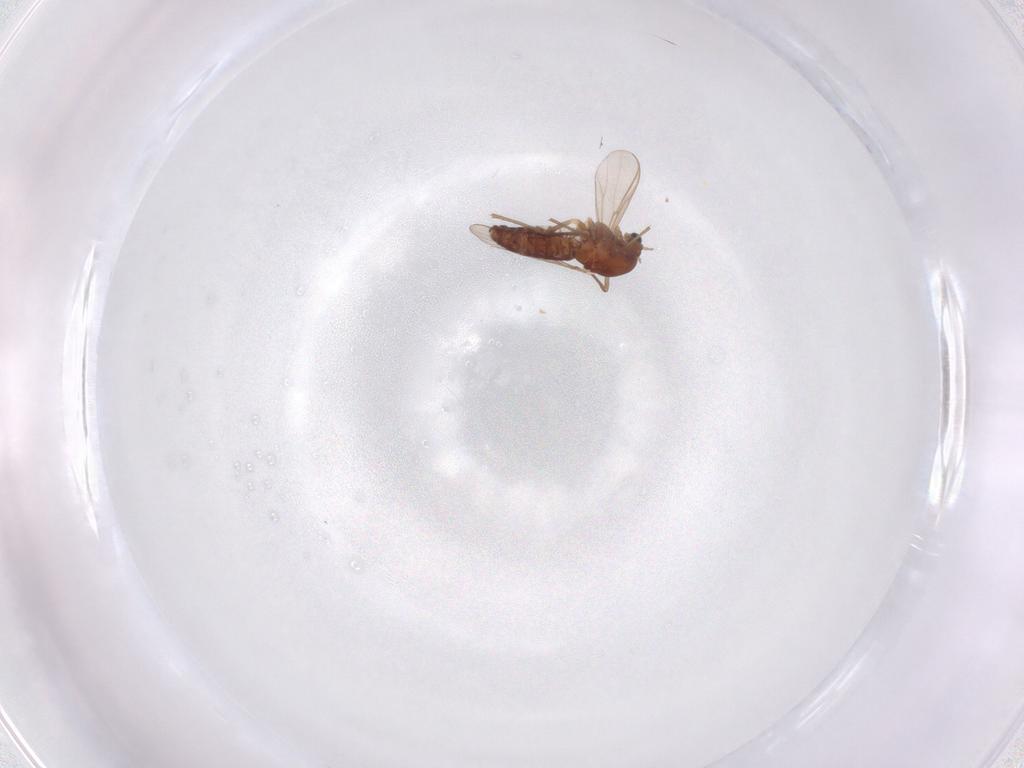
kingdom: Animalia
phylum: Arthropoda
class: Insecta
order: Diptera
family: Chironomidae
